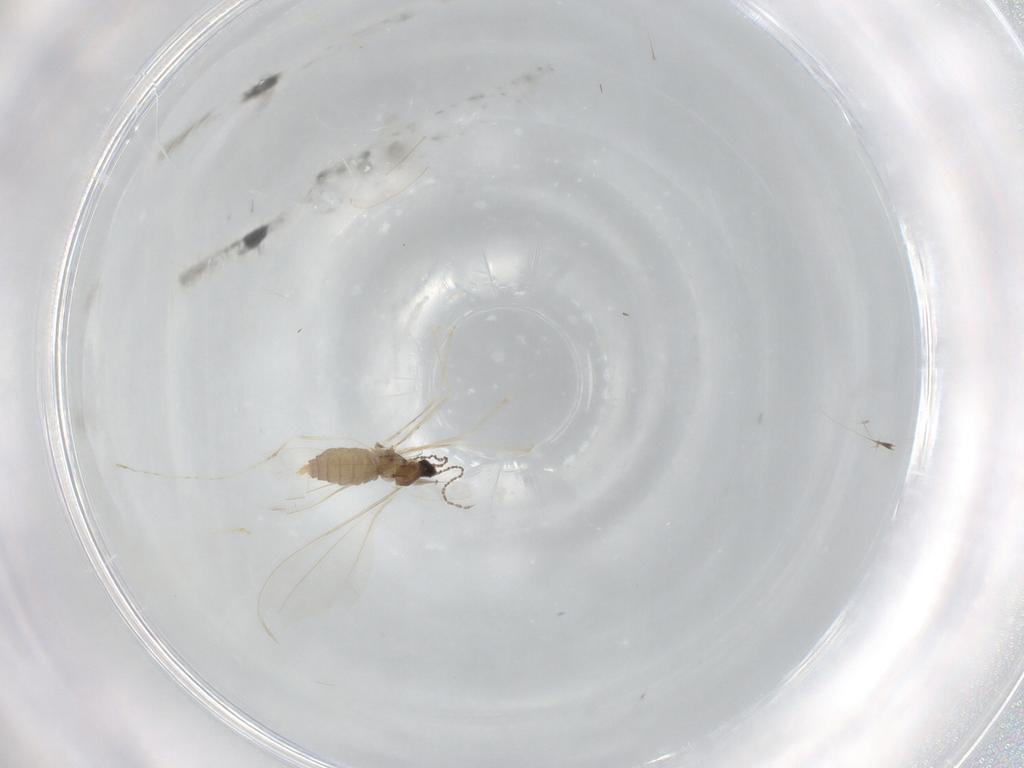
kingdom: Animalia
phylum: Arthropoda
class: Insecta
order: Diptera
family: Cecidomyiidae
